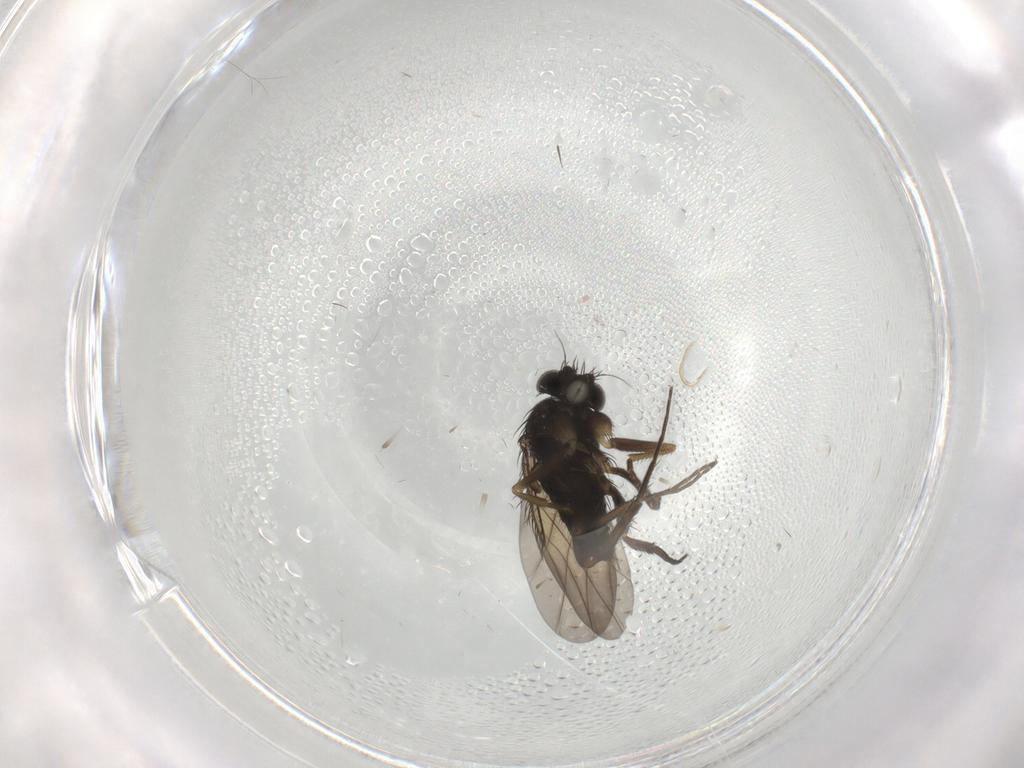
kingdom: Animalia
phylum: Arthropoda
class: Insecta
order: Diptera
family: Phoridae
